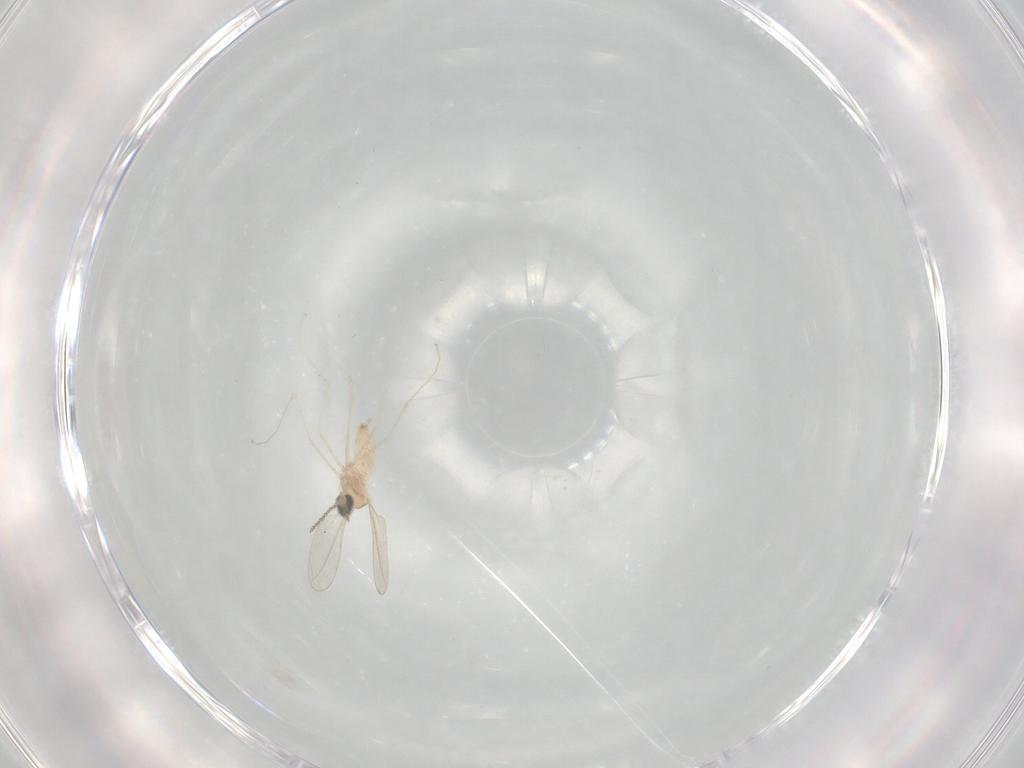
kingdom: Animalia
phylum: Arthropoda
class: Insecta
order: Diptera
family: Cecidomyiidae
